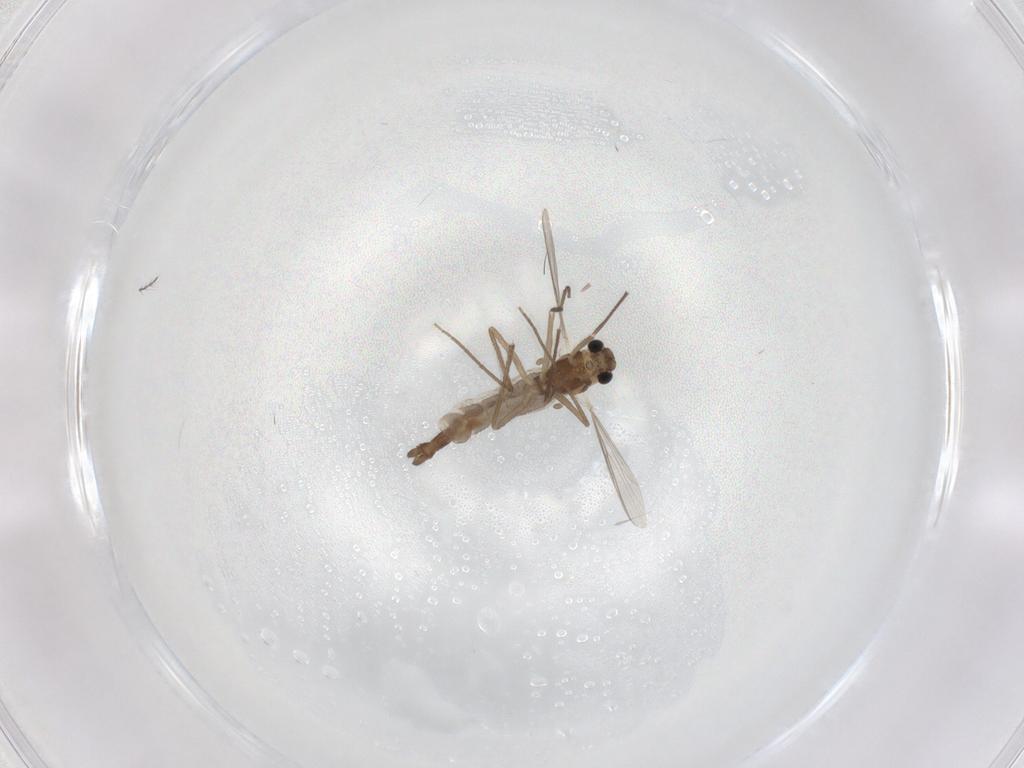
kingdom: Animalia
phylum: Arthropoda
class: Insecta
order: Diptera
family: Chironomidae
